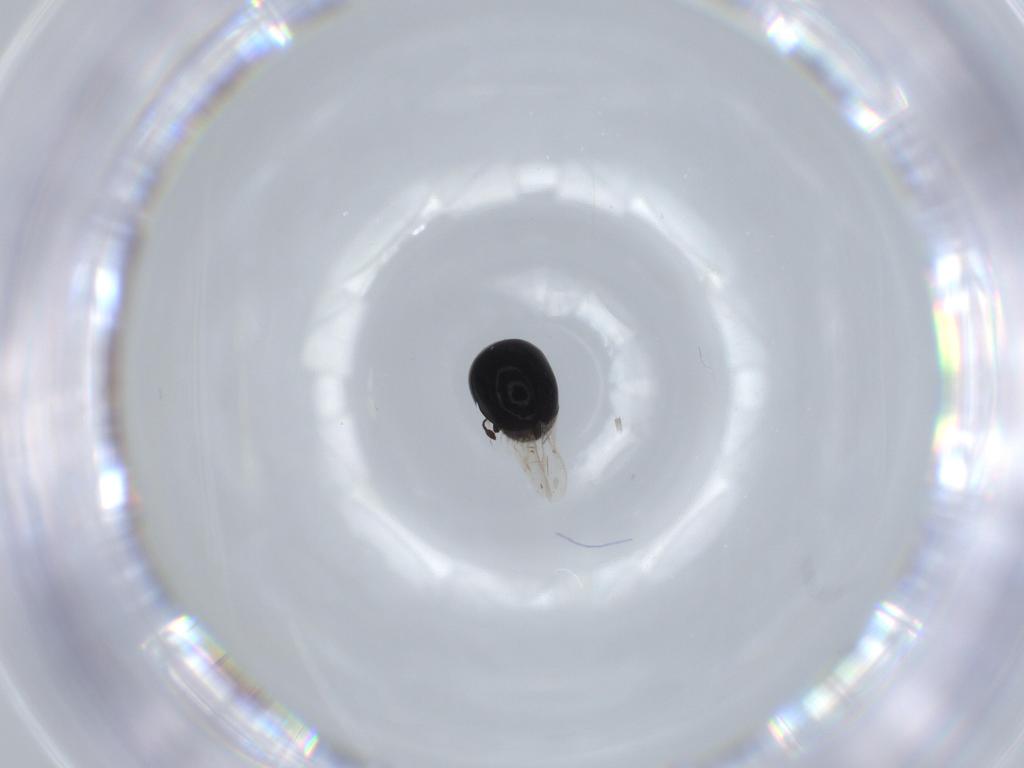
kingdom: Animalia
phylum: Arthropoda
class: Insecta
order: Coleoptera
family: Cybocephalidae
